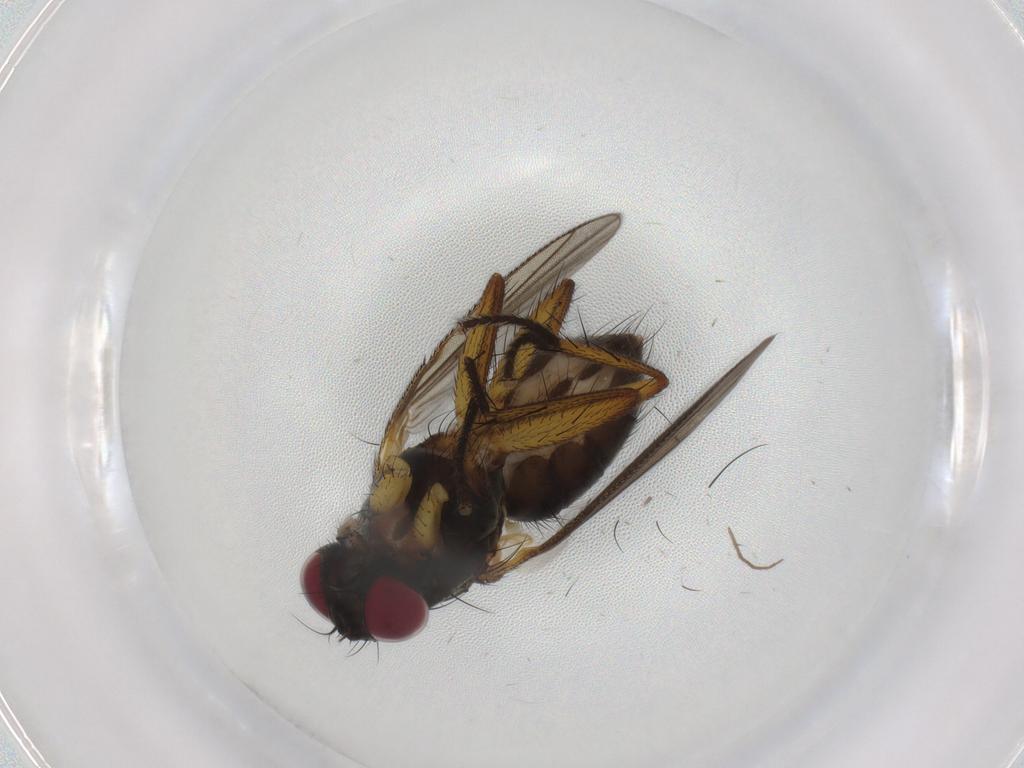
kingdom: Animalia
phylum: Arthropoda
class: Insecta
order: Diptera
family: Muscidae
